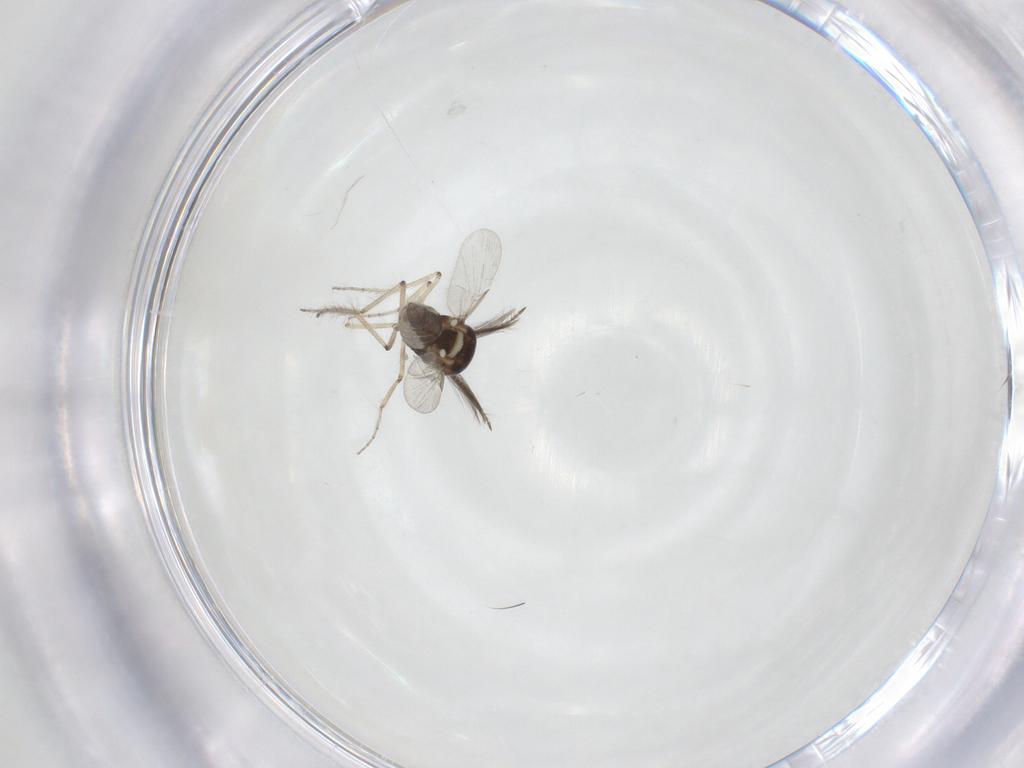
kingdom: Animalia
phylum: Arthropoda
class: Insecta
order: Diptera
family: Ceratopogonidae
